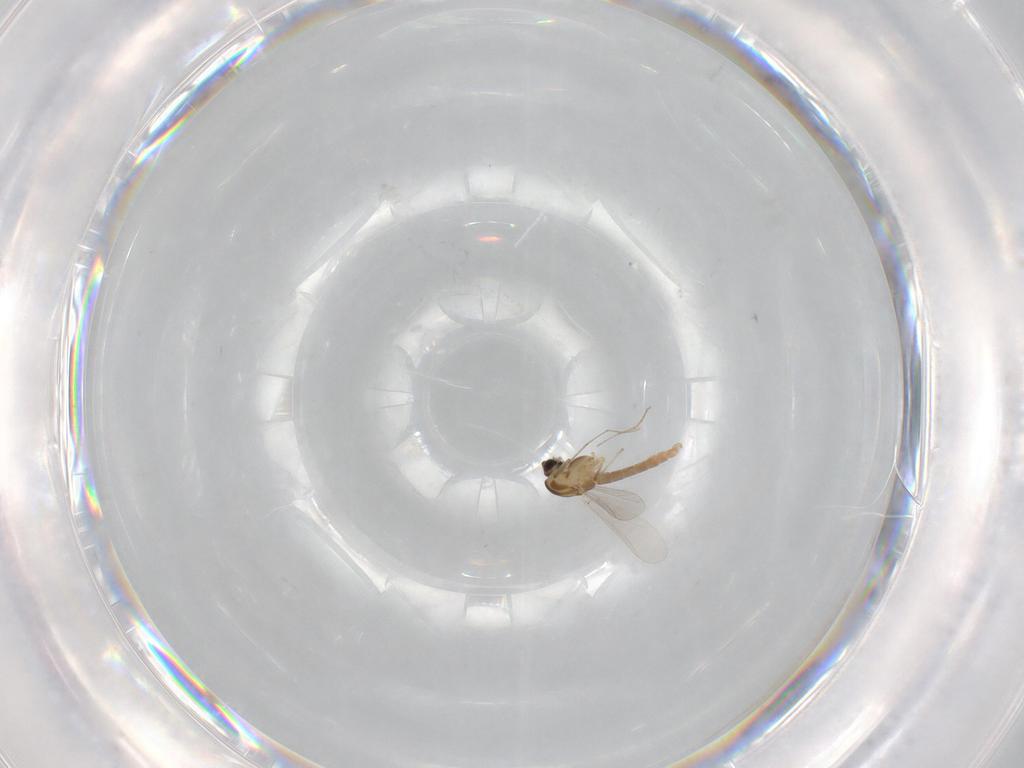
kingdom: Animalia
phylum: Arthropoda
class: Insecta
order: Diptera
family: Chironomidae
